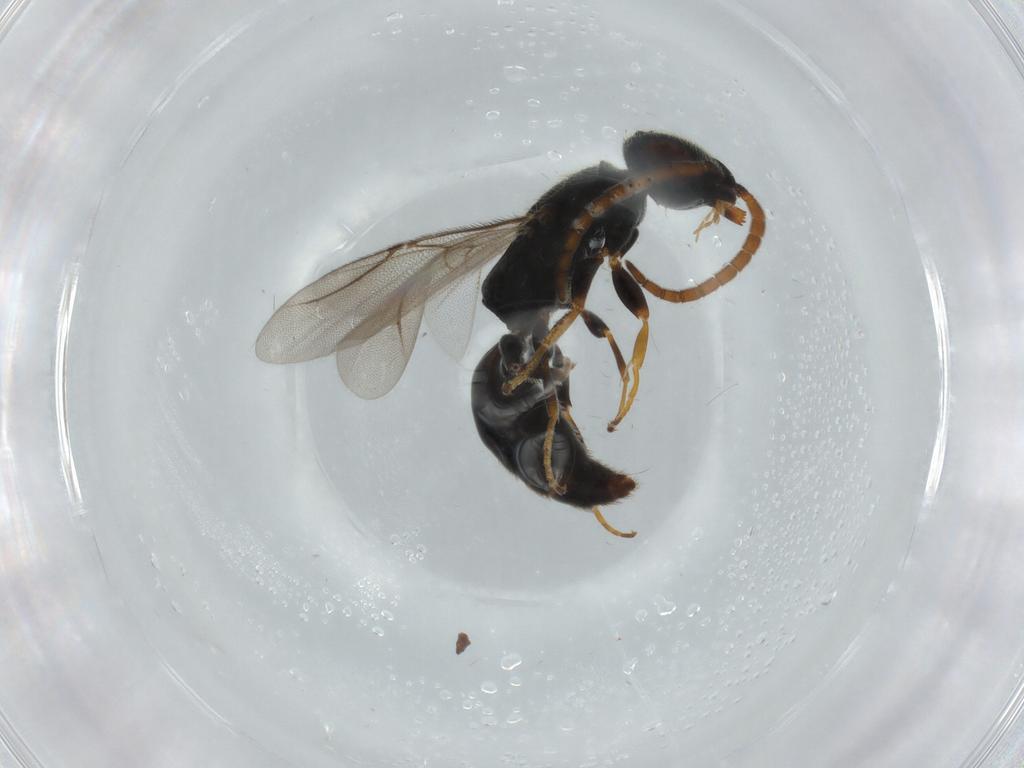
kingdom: Animalia
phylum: Arthropoda
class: Insecta
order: Hymenoptera
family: Bethylidae
